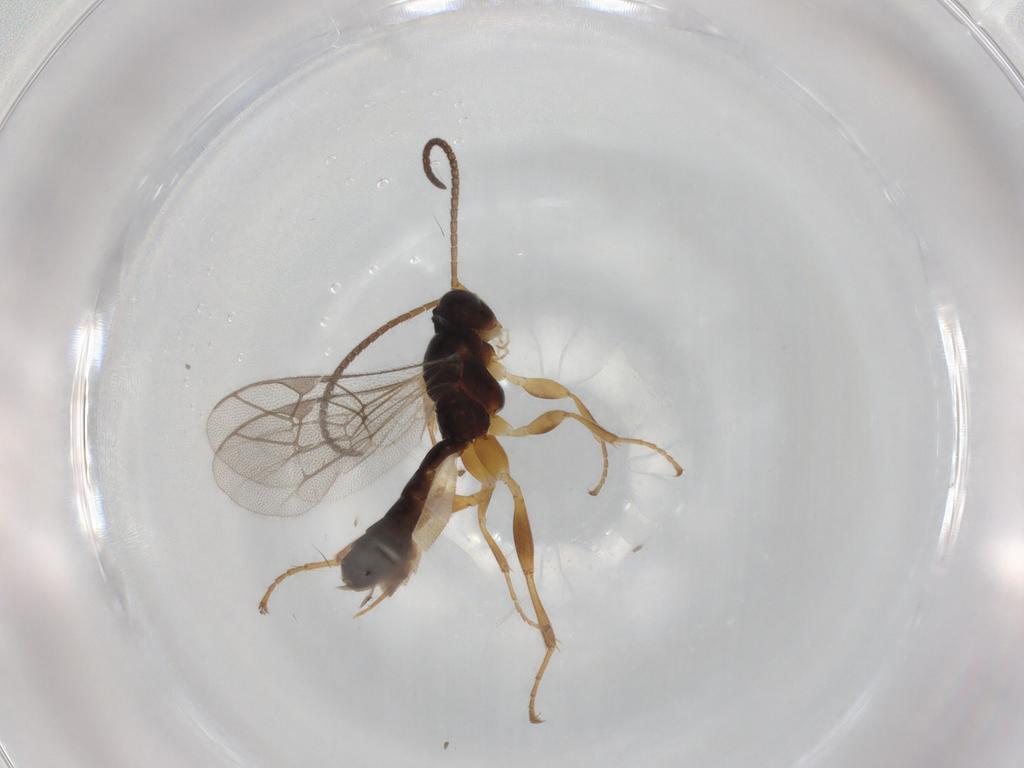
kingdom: Animalia
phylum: Arthropoda
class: Insecta
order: Hymenoptera
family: Ichneumonidae
